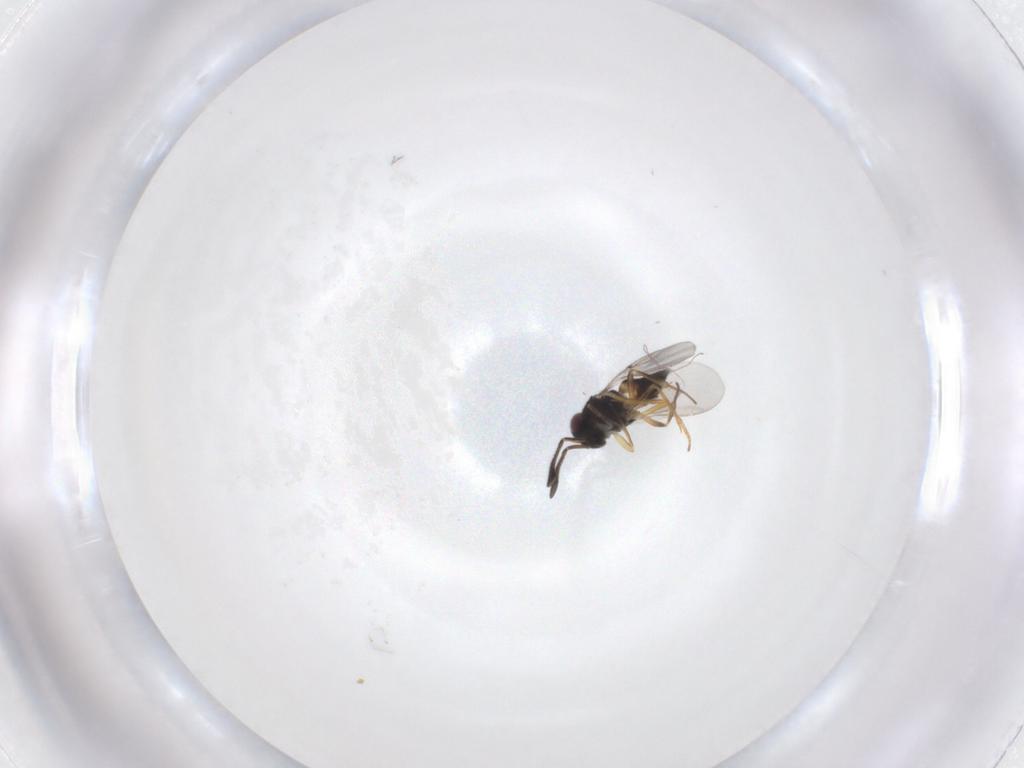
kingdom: Animalia
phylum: Arthropoda
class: Insecta
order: Hymenoptera
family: Encyrtidae
